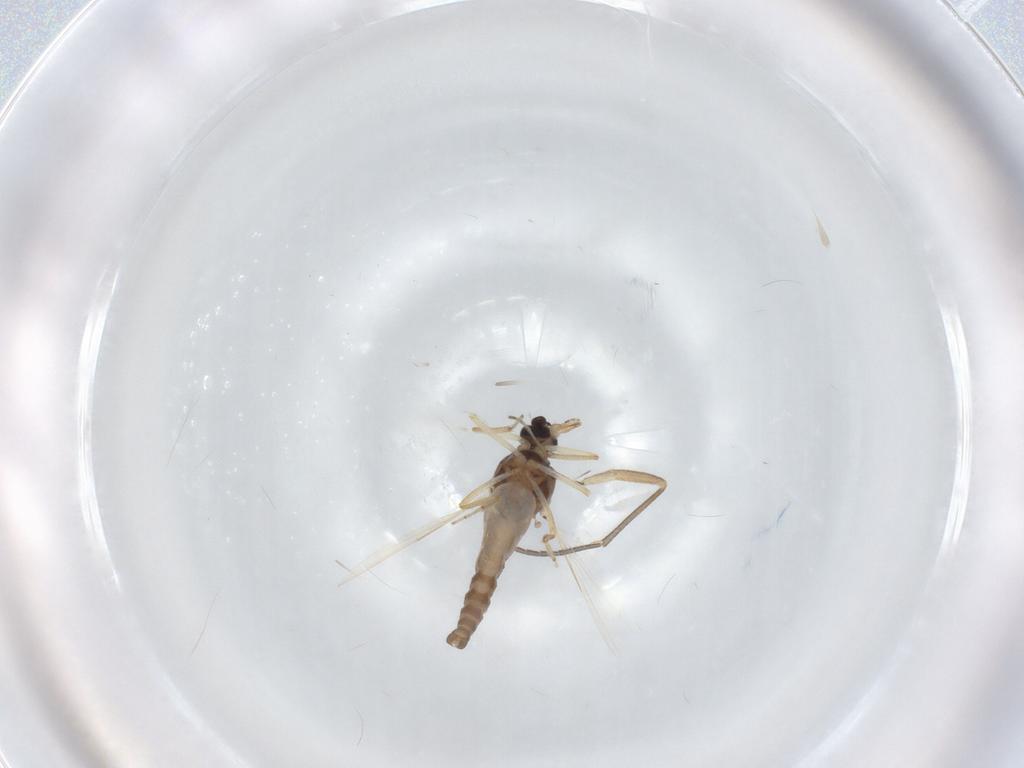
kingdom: Animalia
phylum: Arthropoda
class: Insecta
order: Diptera
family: Ceratopogonidae
